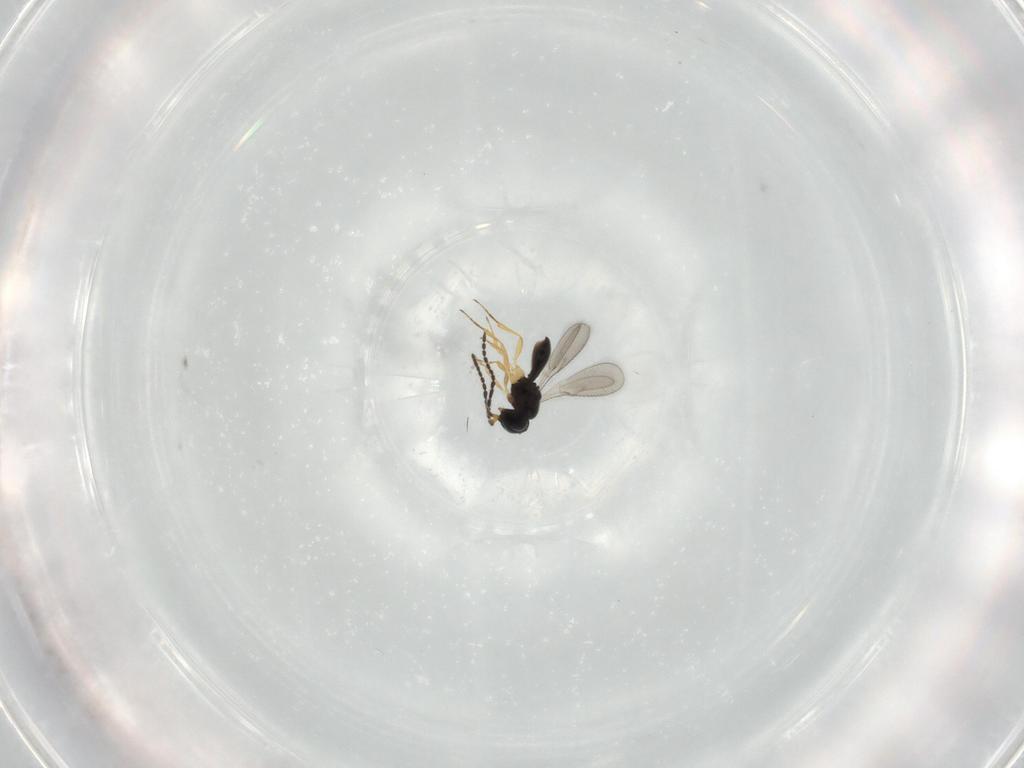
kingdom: Animalia
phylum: Arthropoda
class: Insecta
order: Hymenoptera
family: Scelionidae
